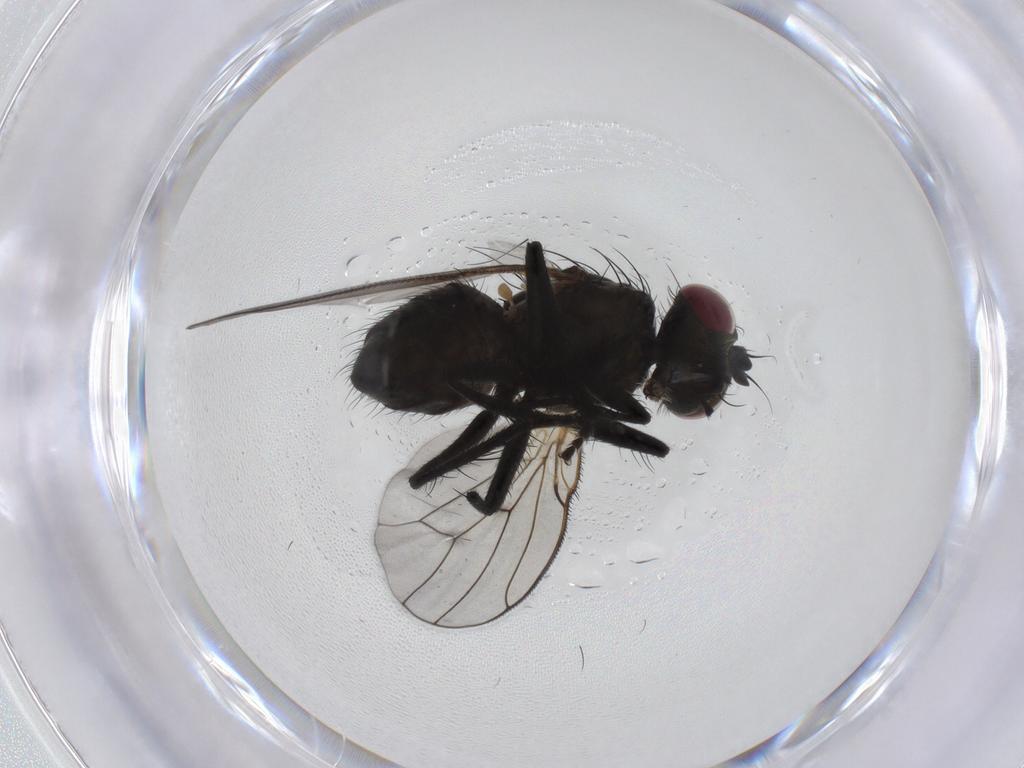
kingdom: Animalia
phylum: Arthropoda
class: Insecta
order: Diptera
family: Muscidae
